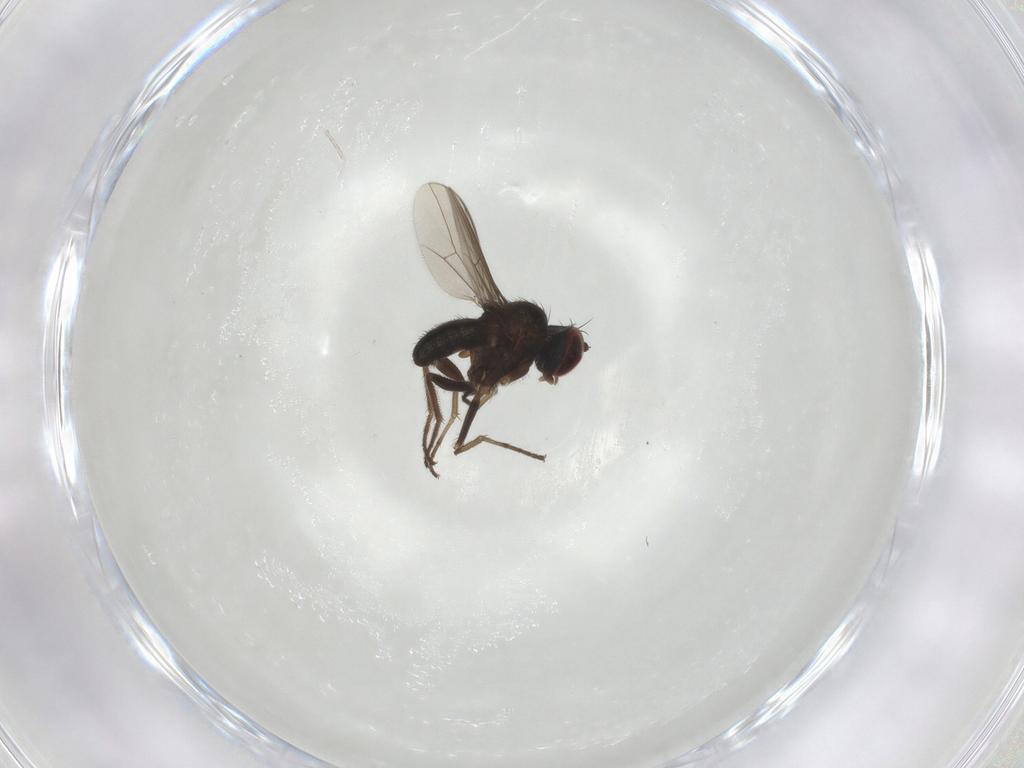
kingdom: Animalia
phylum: Arthropoda
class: Insecta
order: Diptera
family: Dolichopodidae
